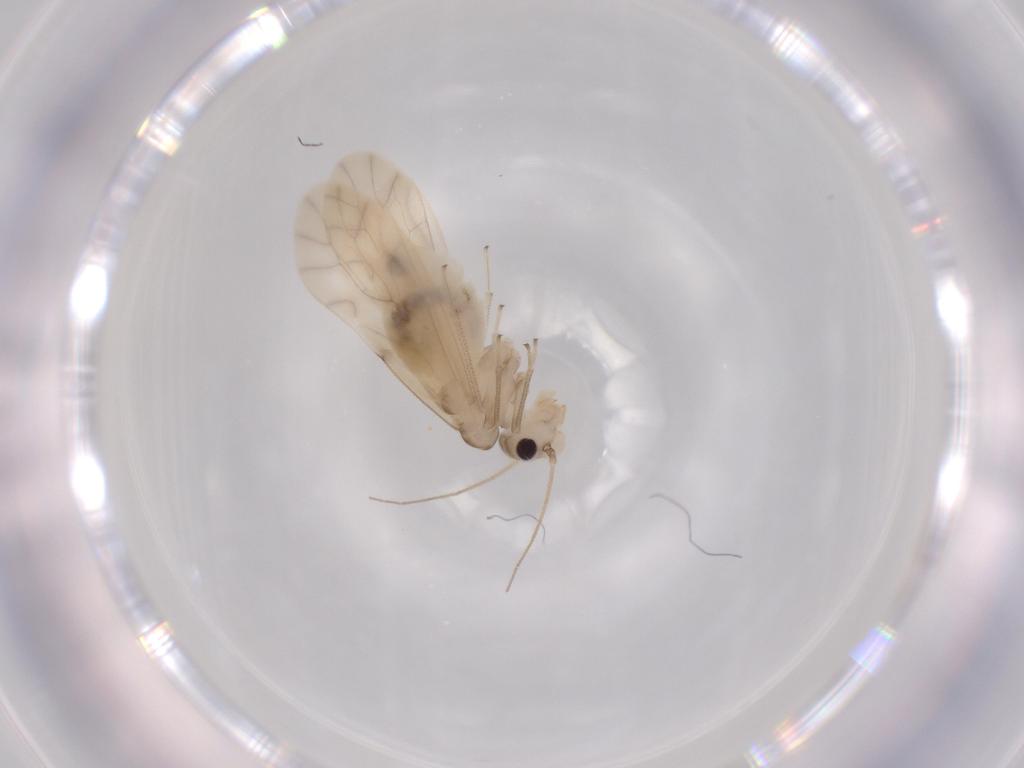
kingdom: Animalia
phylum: Arthropoda
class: Insecta
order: Psocodea
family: Caeciliusidae
